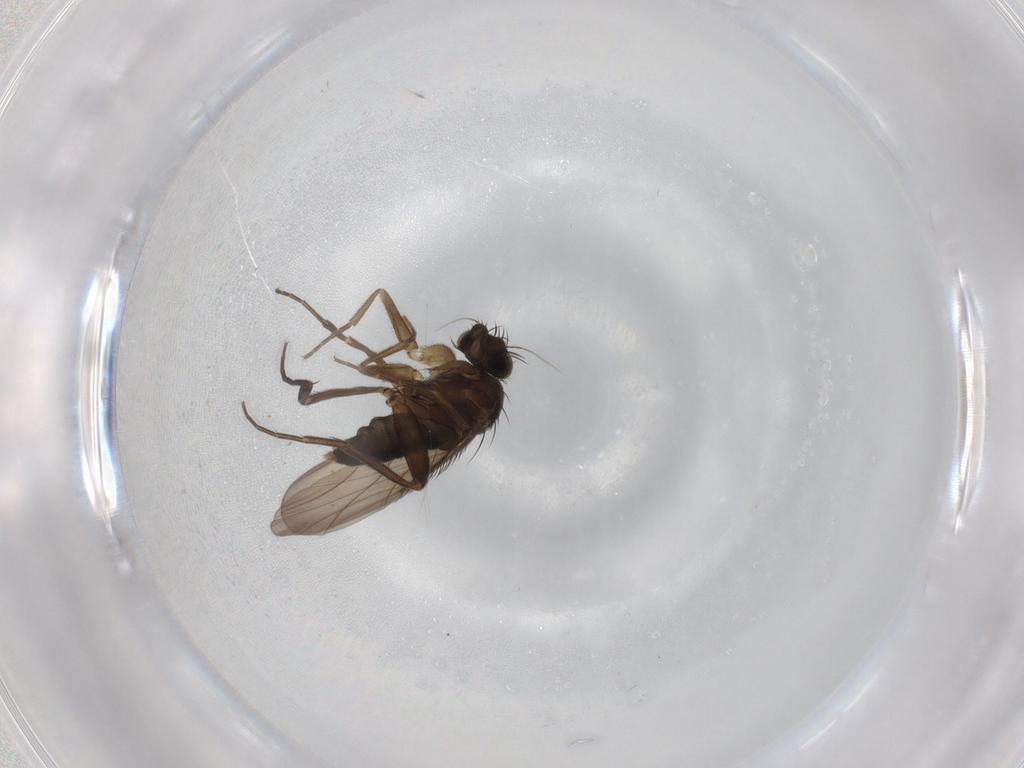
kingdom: Animalia
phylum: Arthropoda
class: Insecta
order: Diptera
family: Phoridae
